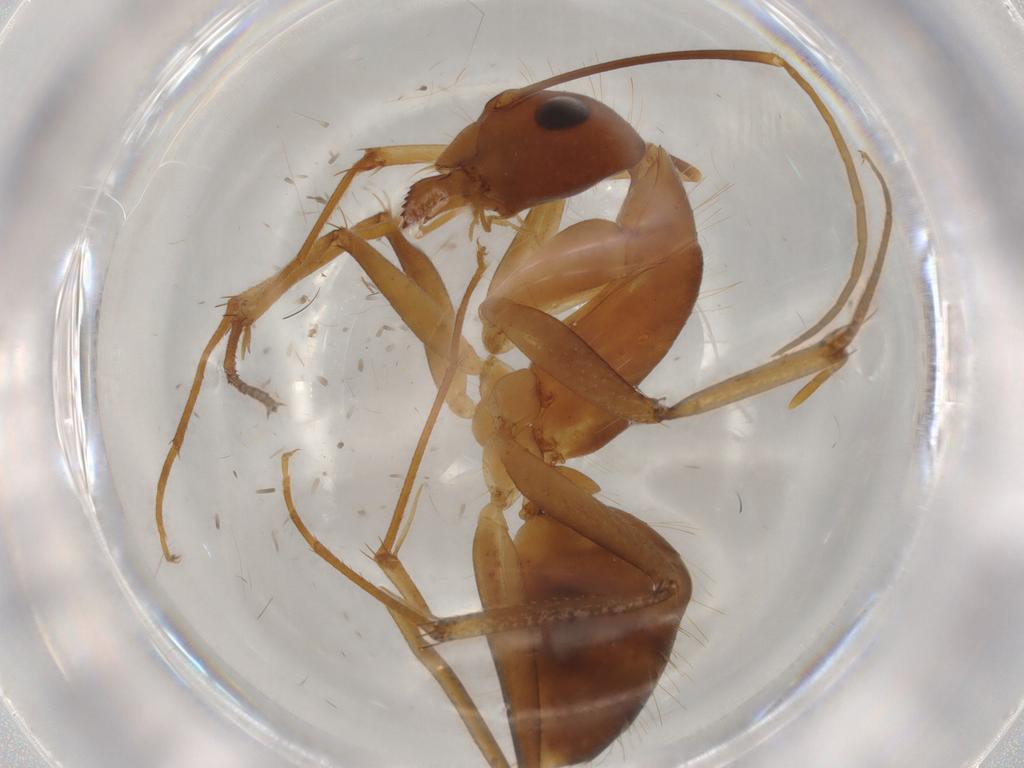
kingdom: Animalia
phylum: Arthropoda
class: Insecta
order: Hymenoptera
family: Formicidae
